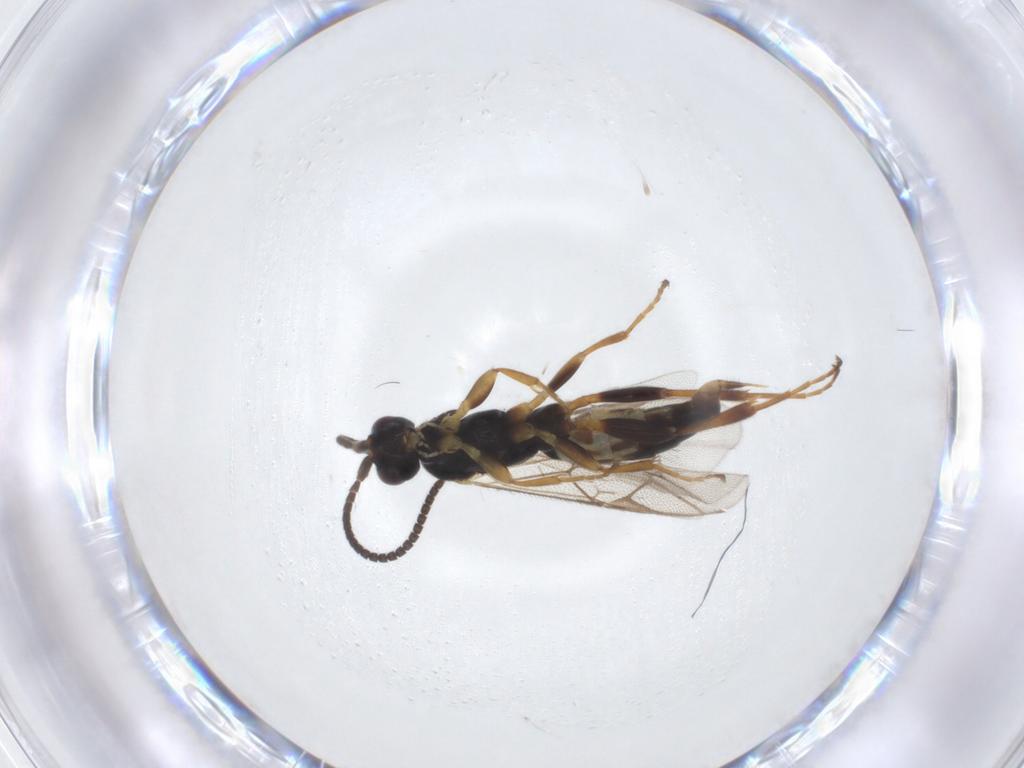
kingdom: Animalia
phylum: Arthropoda
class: Insecta
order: Hymenoptera
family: Ichneumonidae
